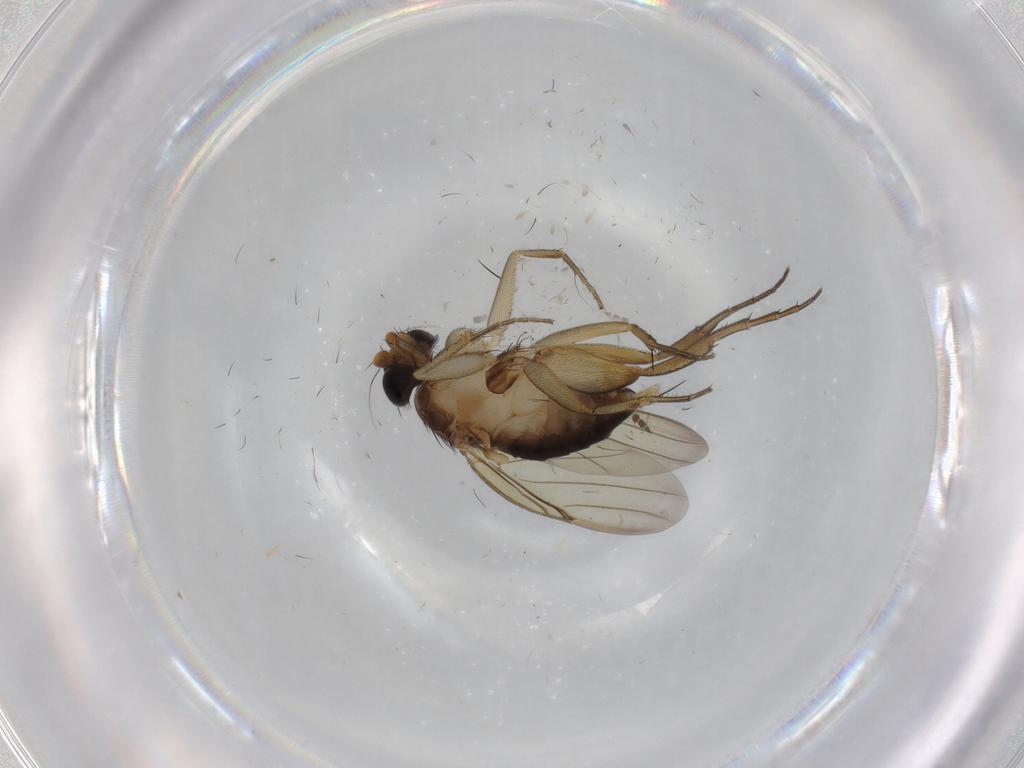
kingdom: Animalia
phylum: Arthropoda
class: Insecta
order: Diptera
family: Phoridae
